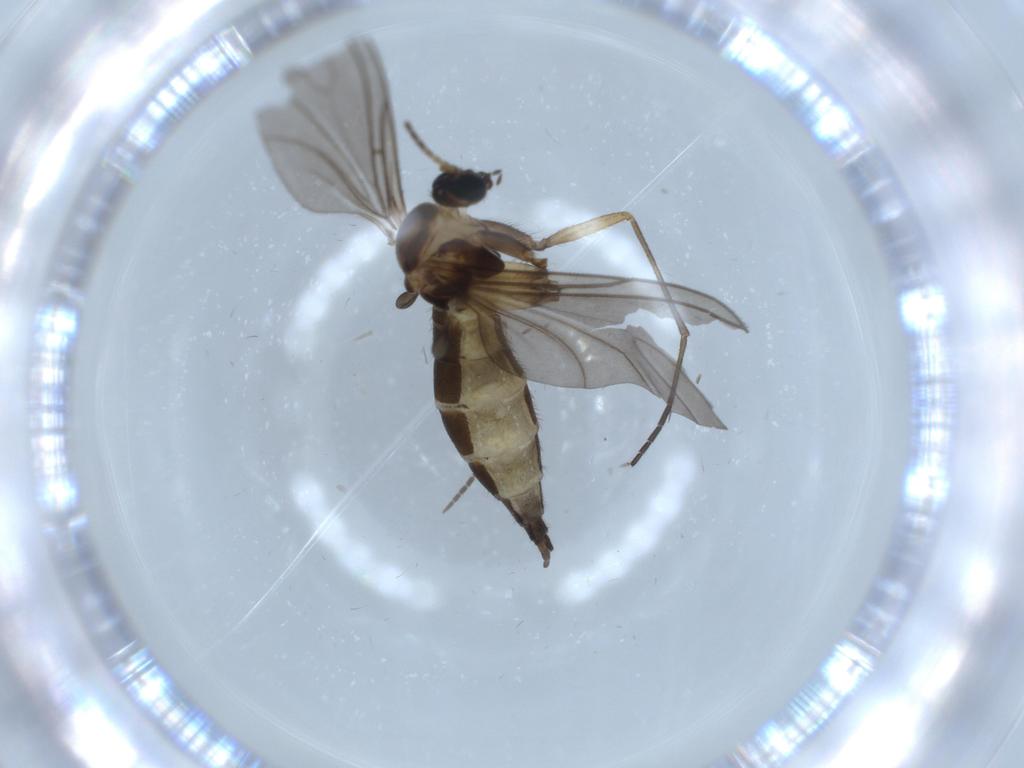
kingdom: Animalia
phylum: Arthropoda
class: Insecta
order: Diptera
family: Sciaridae
